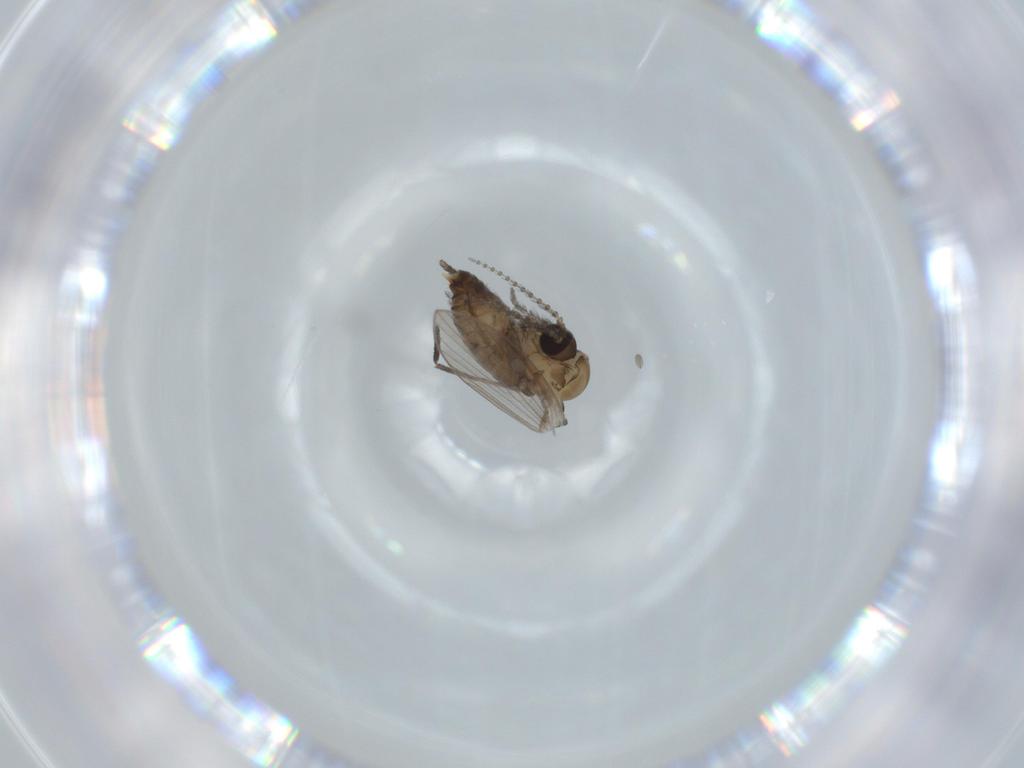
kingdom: Animalia
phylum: Arthropoda
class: Insecta
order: Diptera
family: Psychodidae
